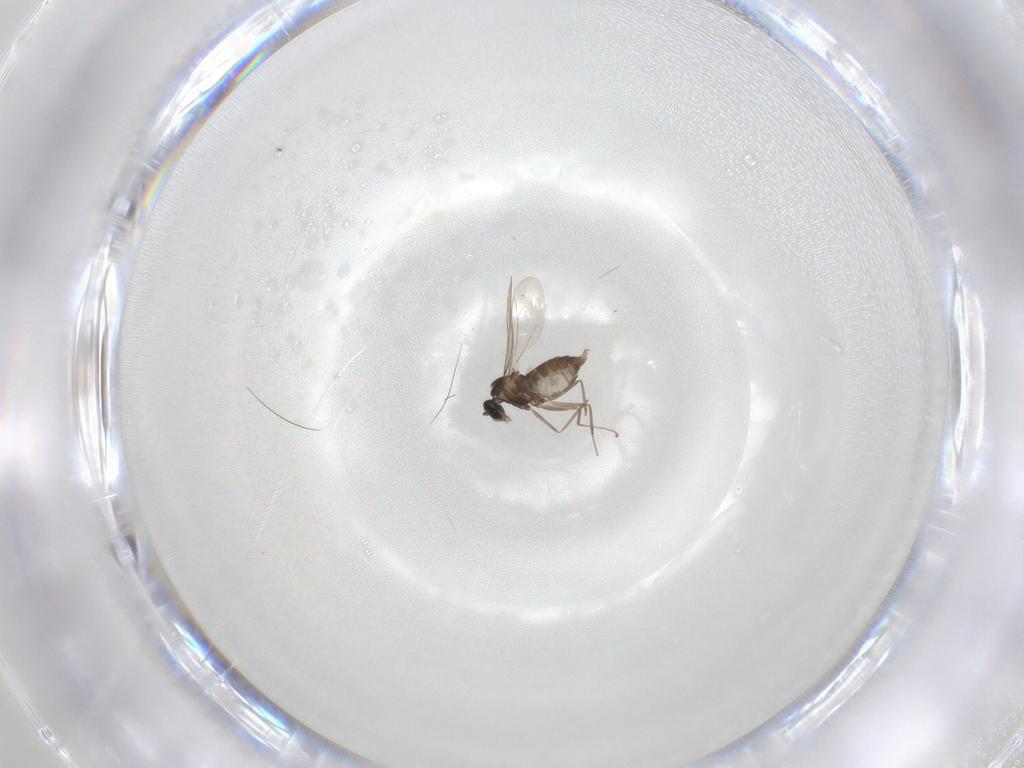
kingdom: Animalia
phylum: Arthropoda
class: Insecta
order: Diptera
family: Cecidomyiidae
